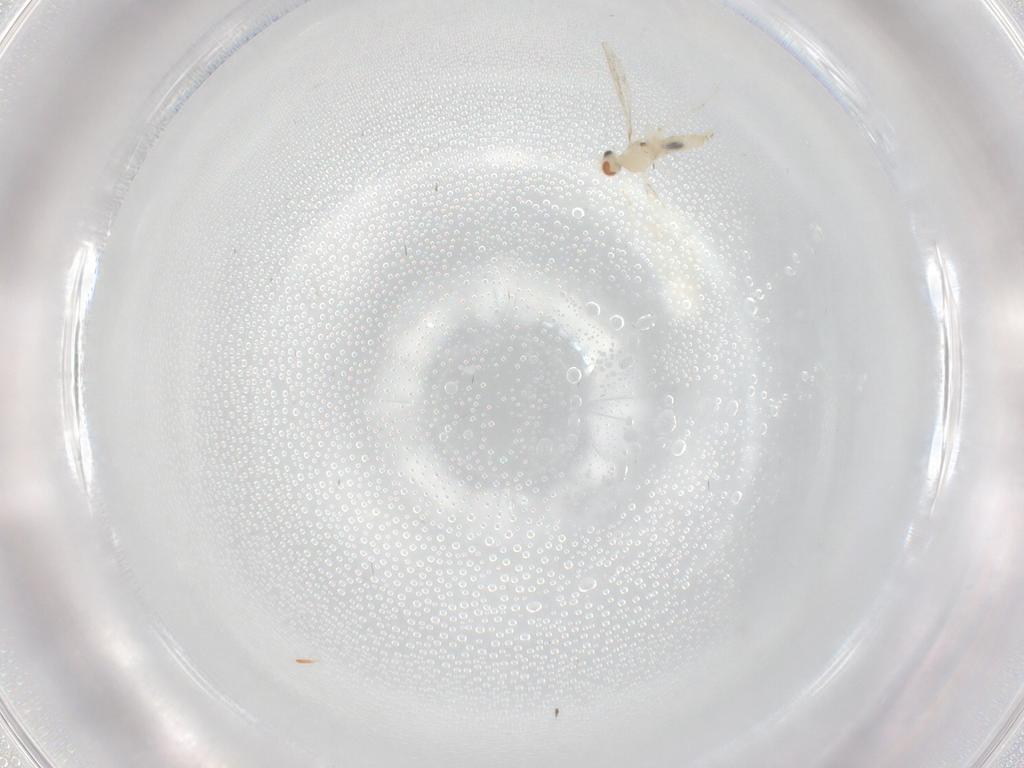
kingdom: Animalia
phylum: Arthropoda
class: Insecta
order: Diptera
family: Cecidomyiidae
